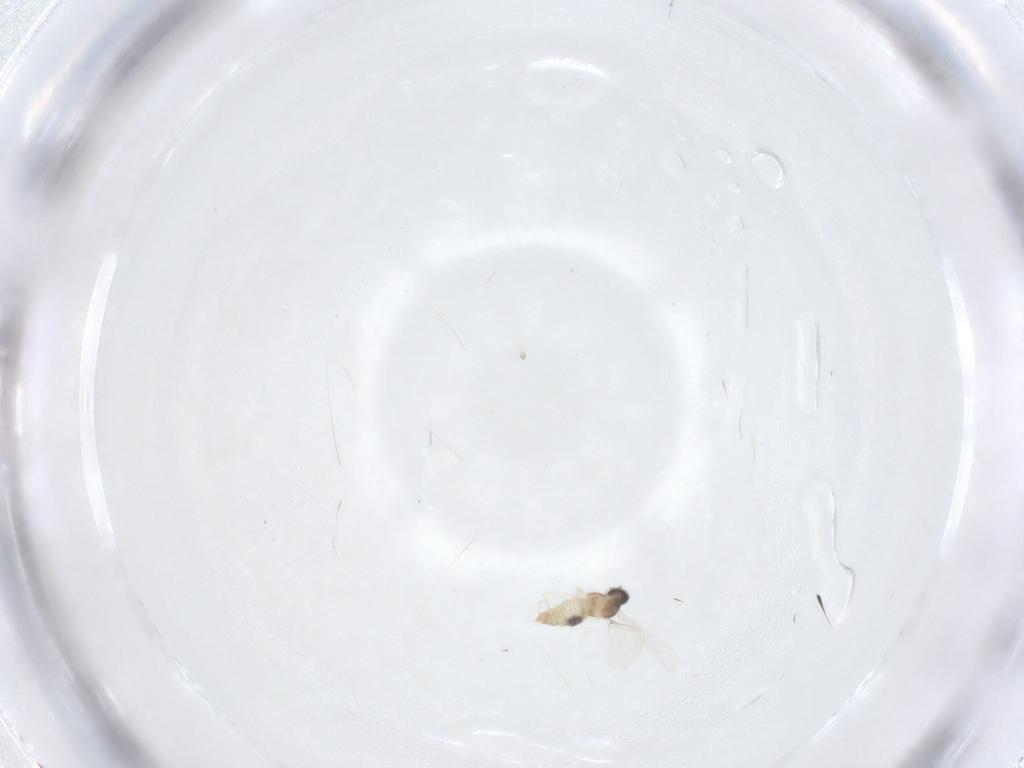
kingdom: Animalia
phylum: Arthropoda
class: Insecta
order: Diptera
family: Cecidomyiidae
